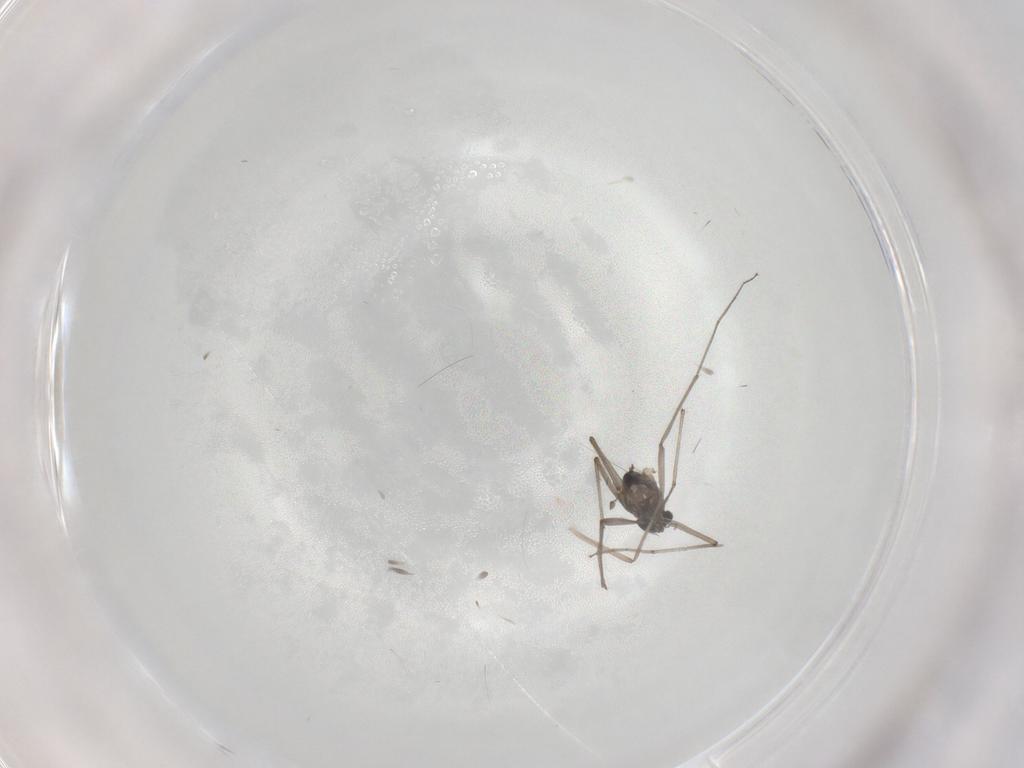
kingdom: Animalia
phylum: Arthropoda
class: Insecta
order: Diptera
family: Chironomidae
